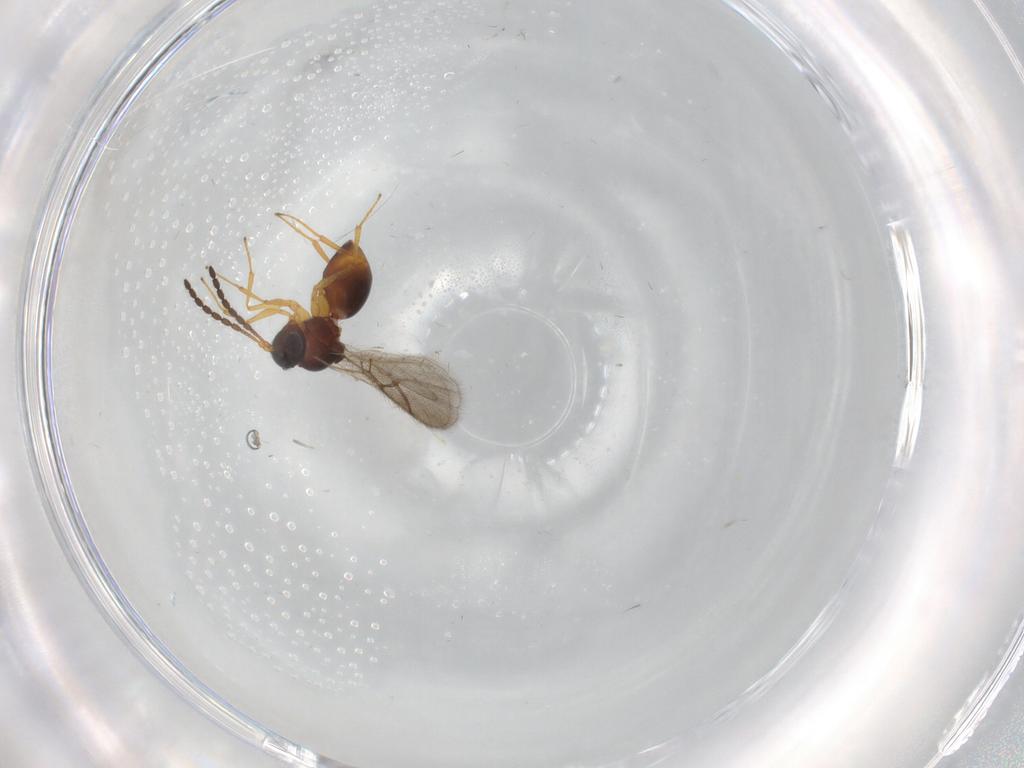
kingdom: Animalia
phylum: Arthropoda
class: Insecta
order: Hymenoptera
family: Figitidae
